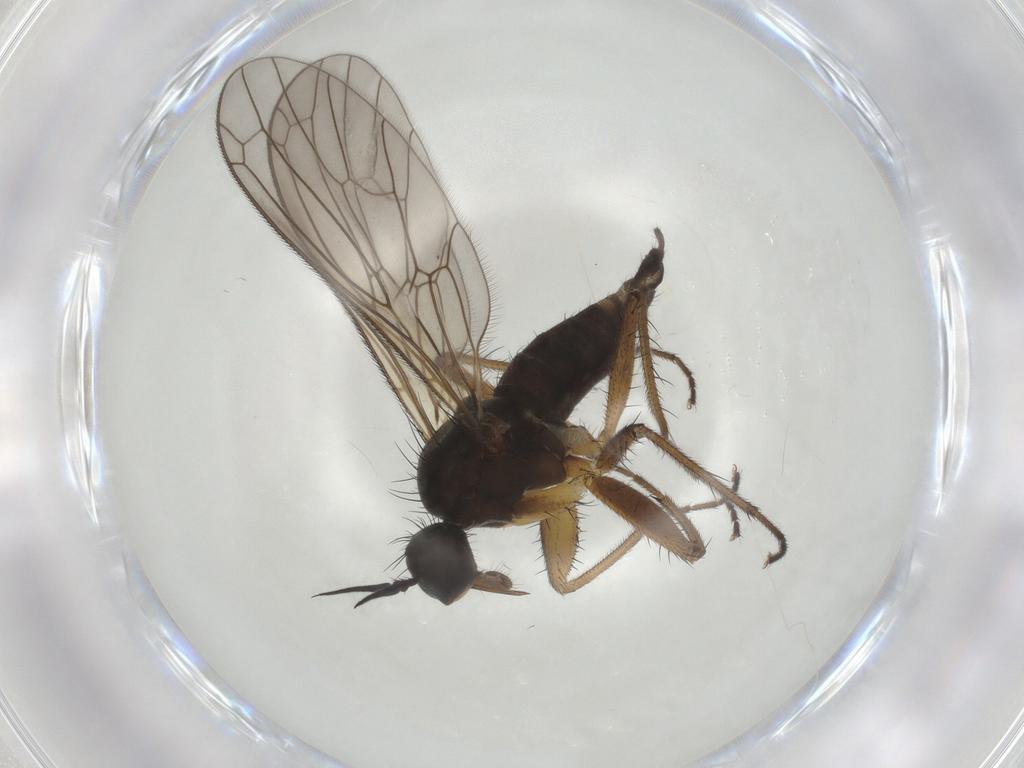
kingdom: Animalia
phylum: Arthropoda
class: Insecta
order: Diptera
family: Empididae
